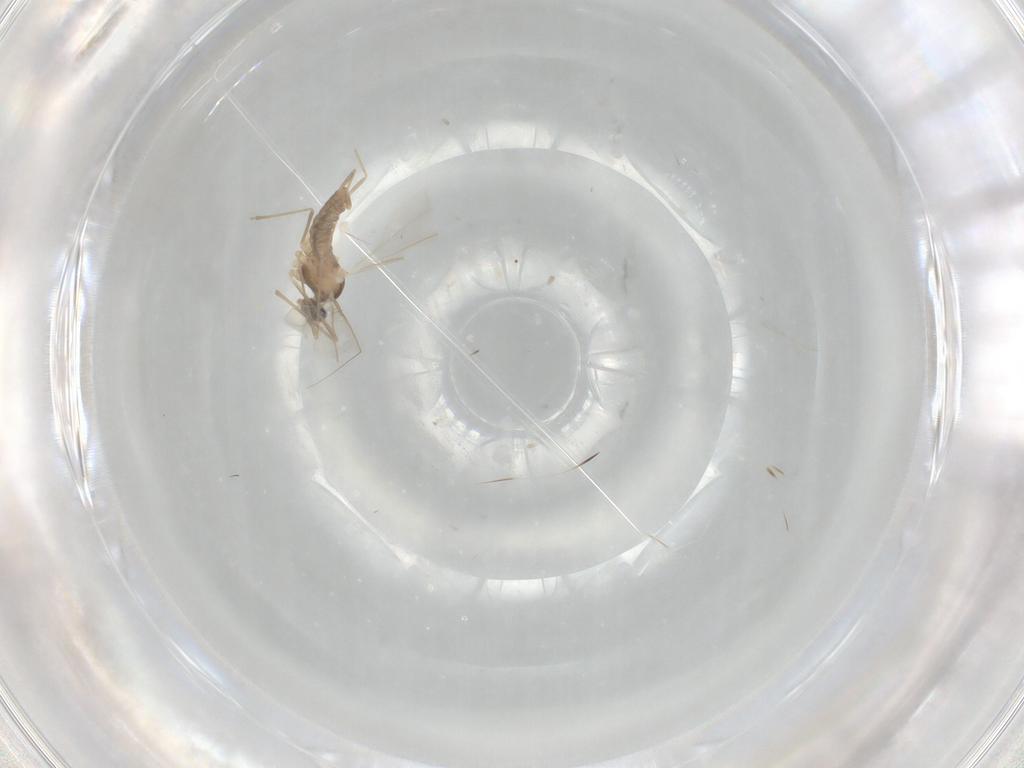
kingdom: Animalia
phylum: Arthropoda
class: Insecta
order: Diptera
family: Cecidomyiidae
